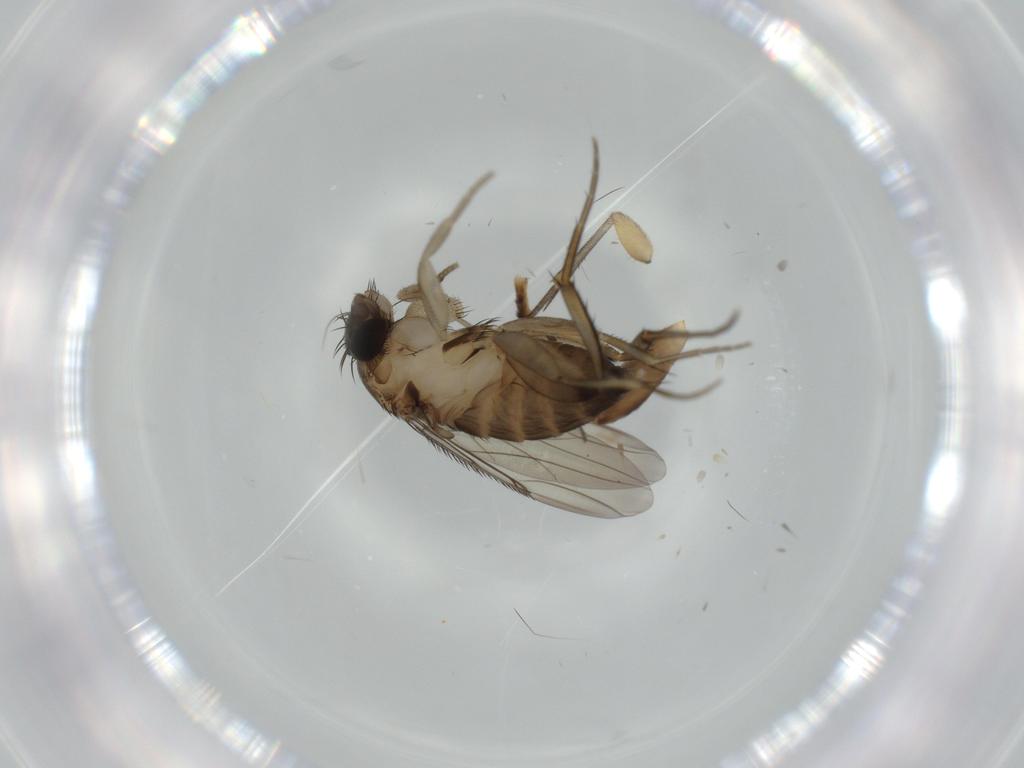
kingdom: Animalia
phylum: Arthropoda
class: Insecta
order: Diptera
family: Phoridae
